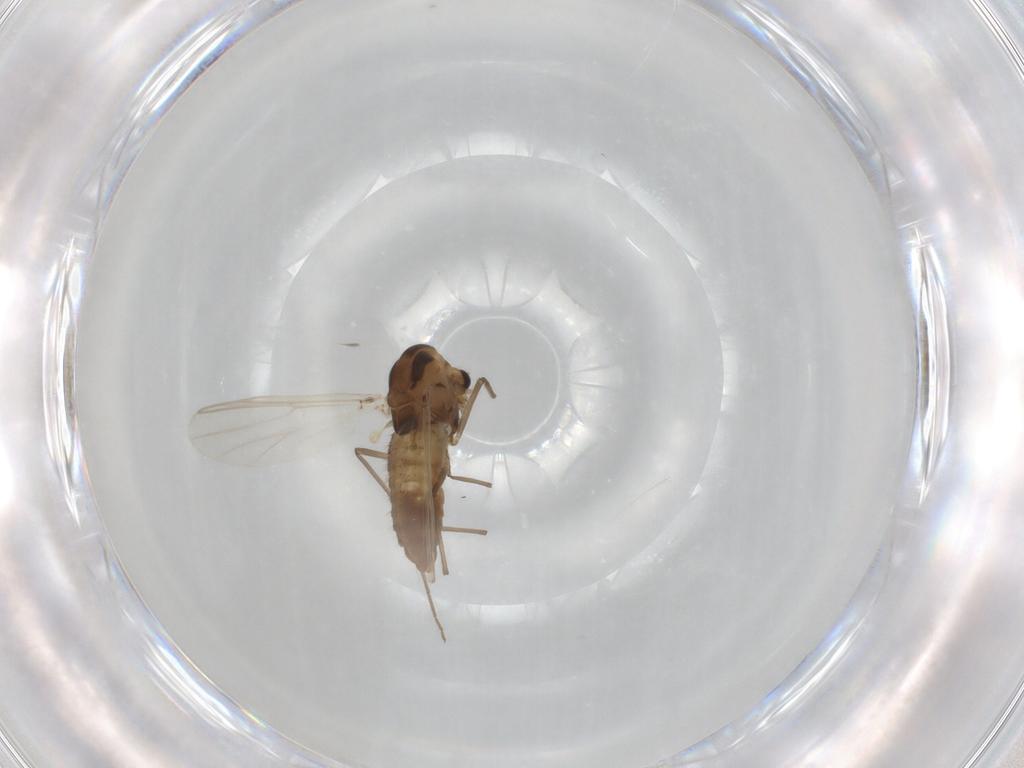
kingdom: Animalia
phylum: Arthropoda
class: Insecta
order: Diptera
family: Chironomidae
